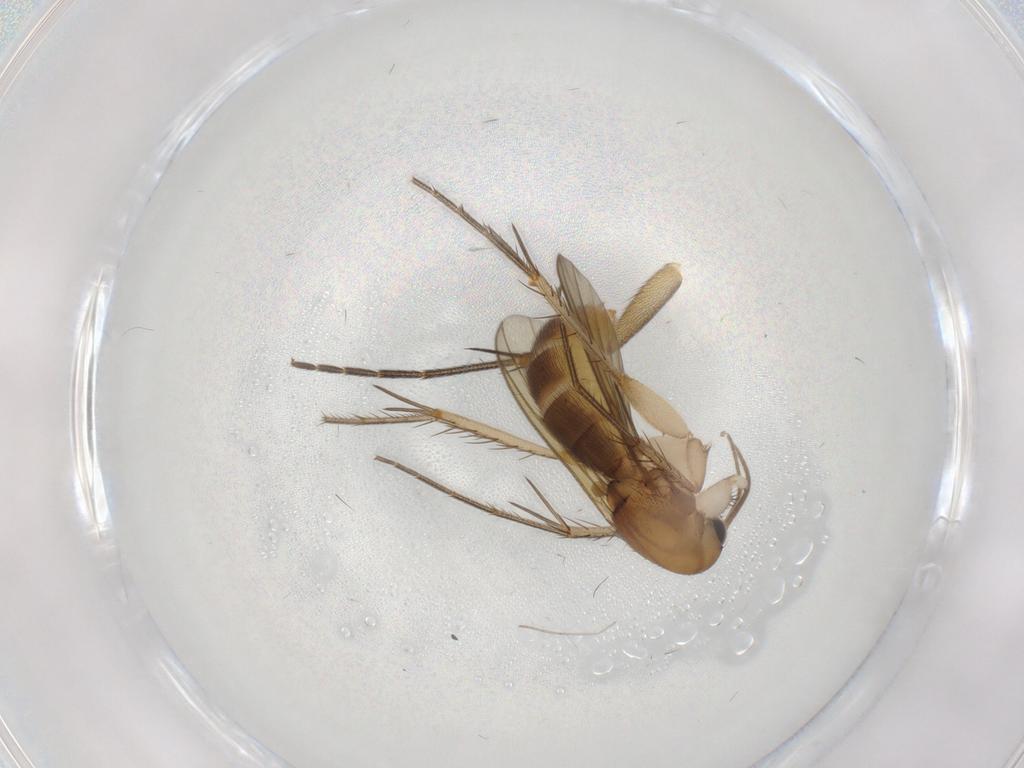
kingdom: Animalia
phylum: Arthropoda
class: Insecta
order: Diptera
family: Mycetophilidae
